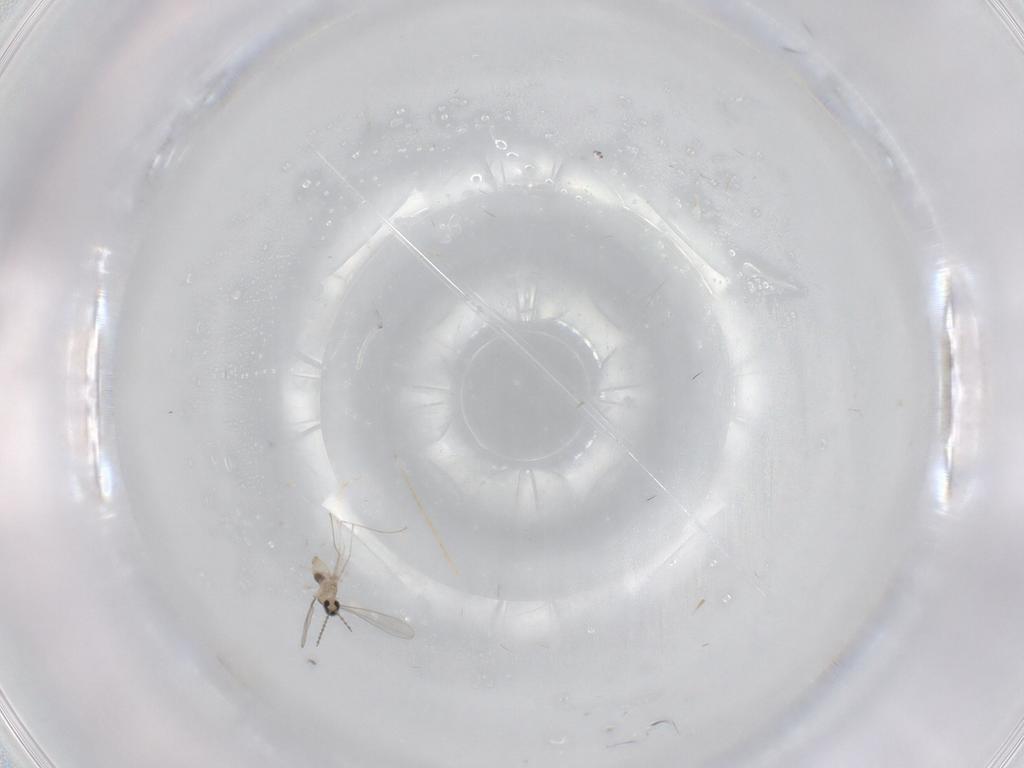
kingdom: Animalia
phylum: Arthropoda
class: Insecta
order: Diptera
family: Cecidomyiidae
